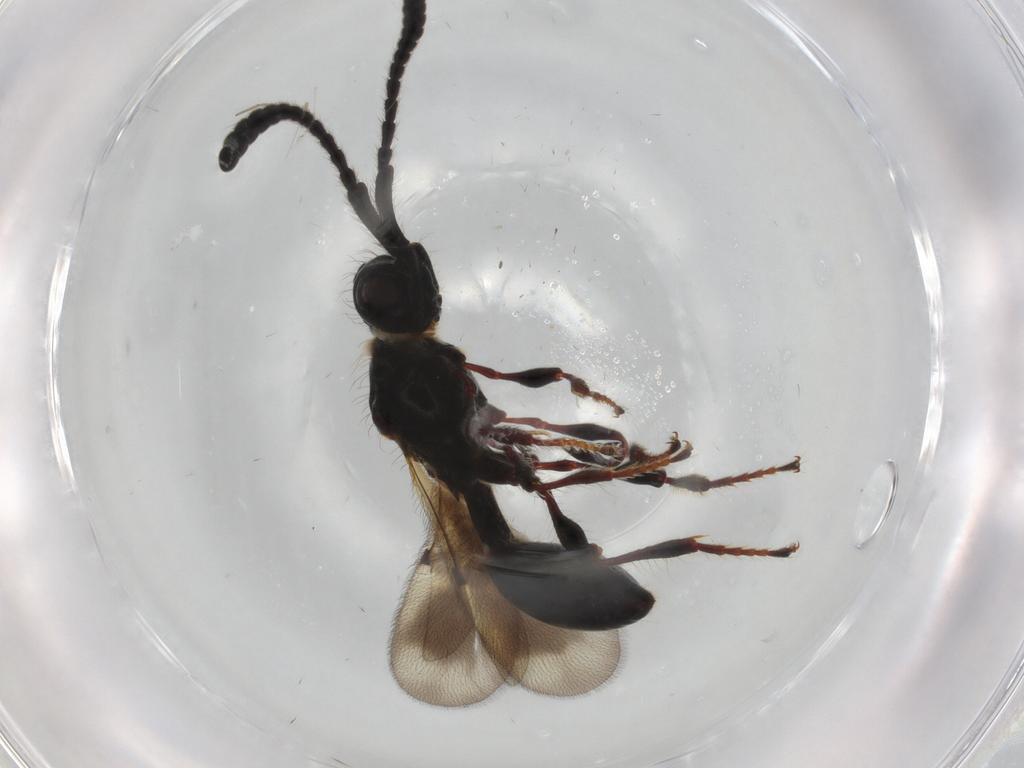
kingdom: Animalia
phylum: Arthropoda
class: Insecta
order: Hymenoptera
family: Diapriidae
